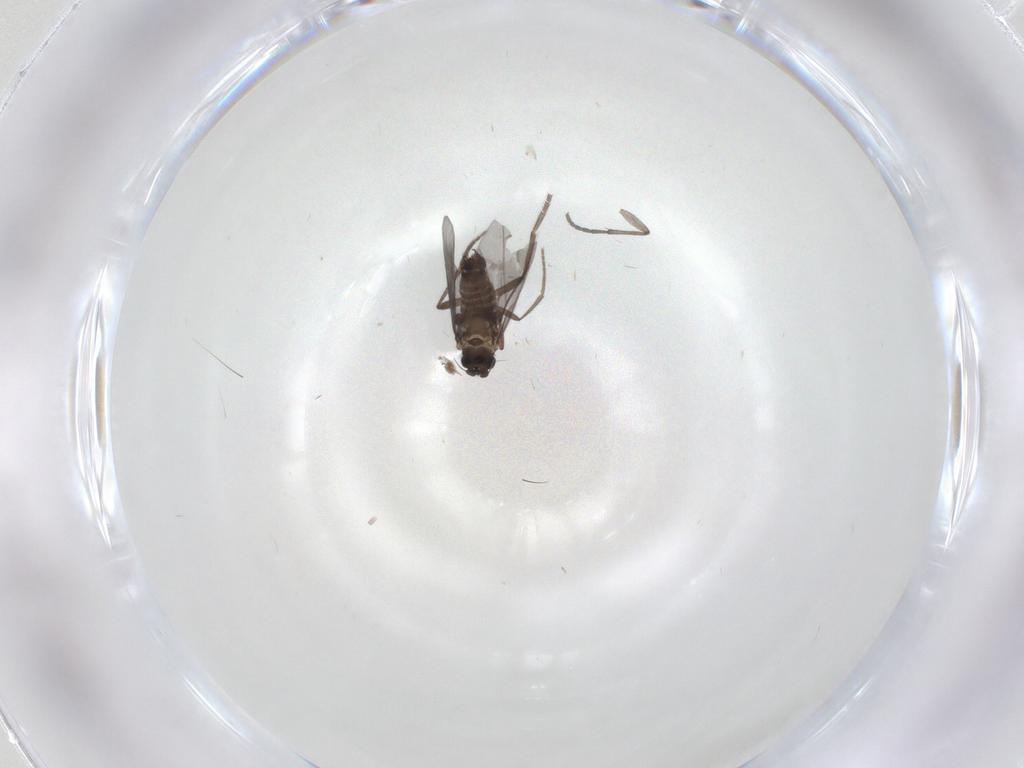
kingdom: Animalia
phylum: Arthropoda
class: Insecta
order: Diptera
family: Phoridae
